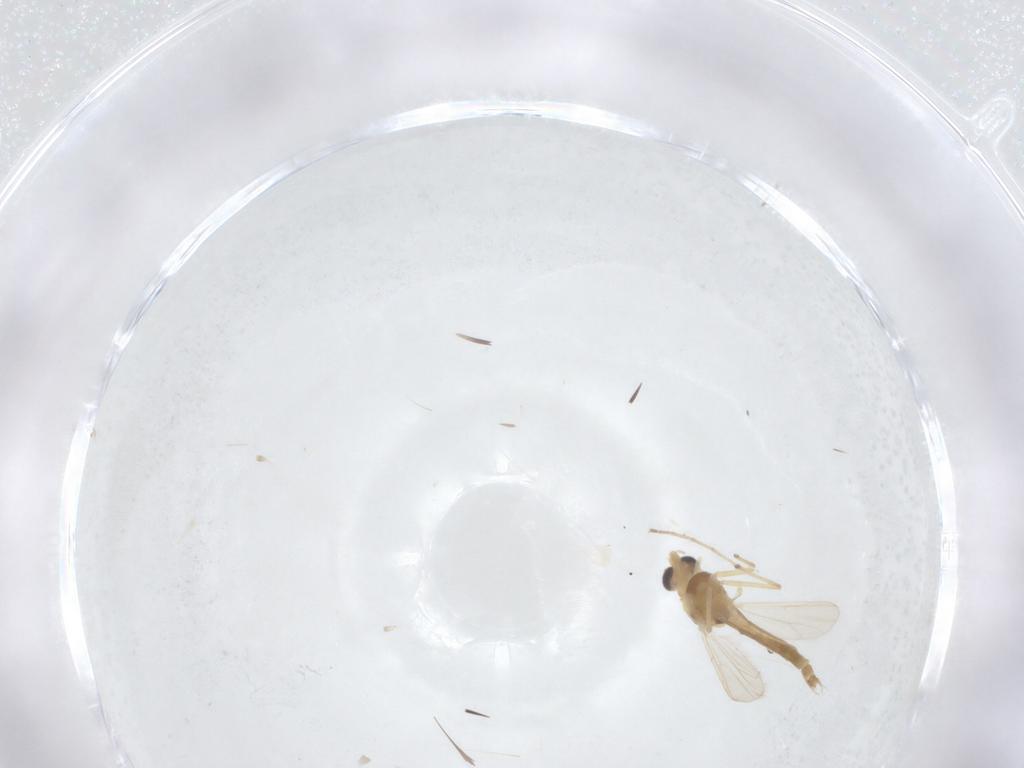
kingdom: Animalia
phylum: Arthropoda
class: Insecta
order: Diptera
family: Chironomidae
